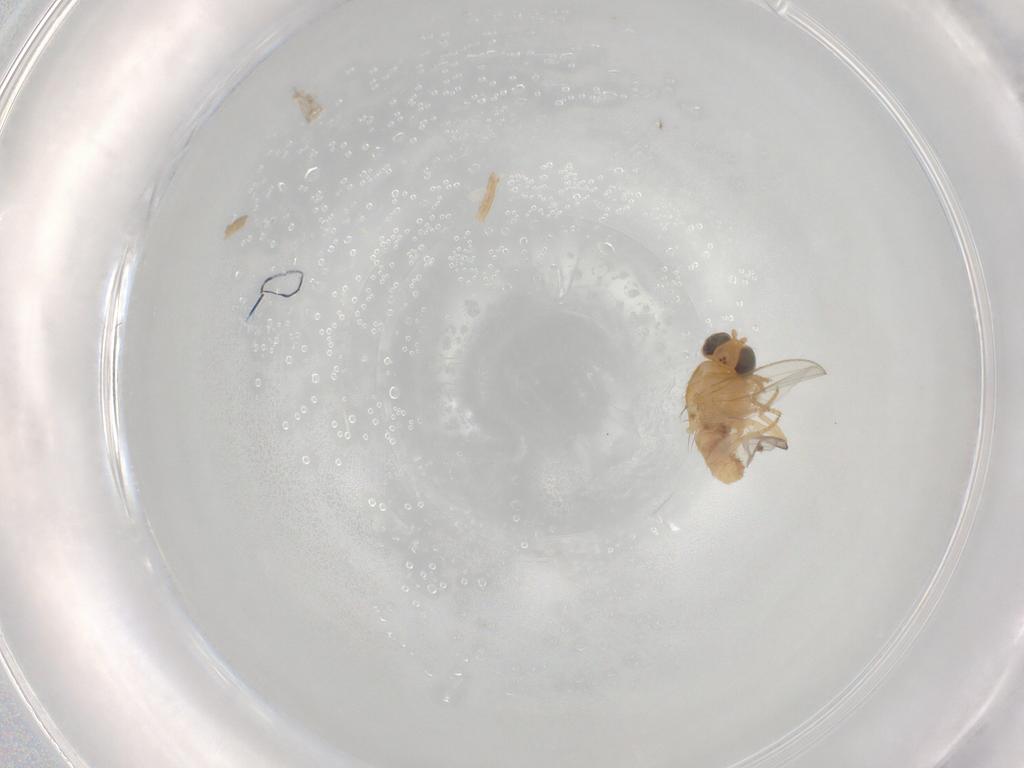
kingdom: Animalia
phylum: Arthropoda
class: Insecta
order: Diptera
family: Chyromyidae
